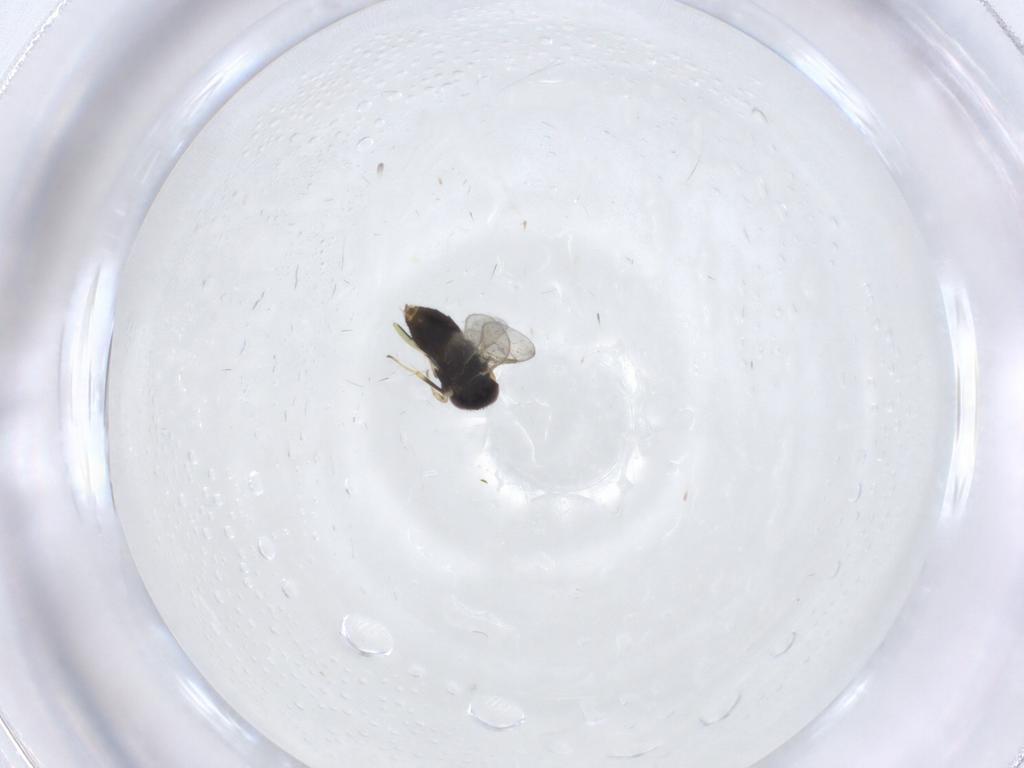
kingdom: Animalia
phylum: Arthropoda
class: Insecta
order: Hymenoptera
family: Aphelinidae
